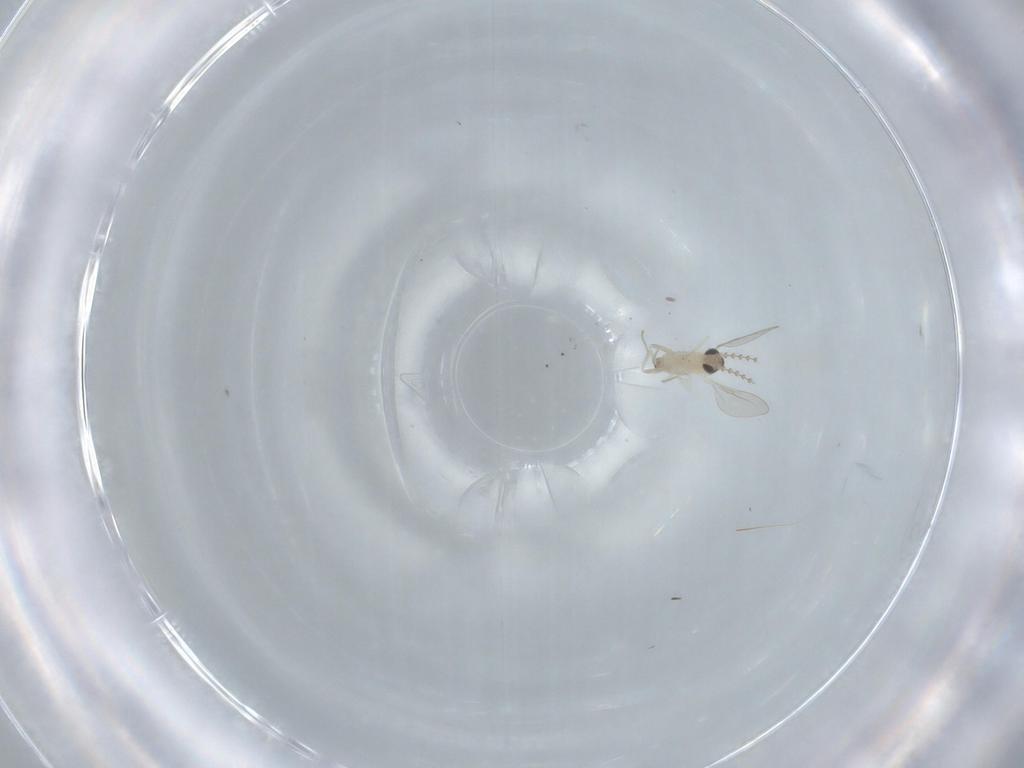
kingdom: Animalia
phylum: Arthropoda
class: Insecta
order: Diptera
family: Cecidomyiidae
